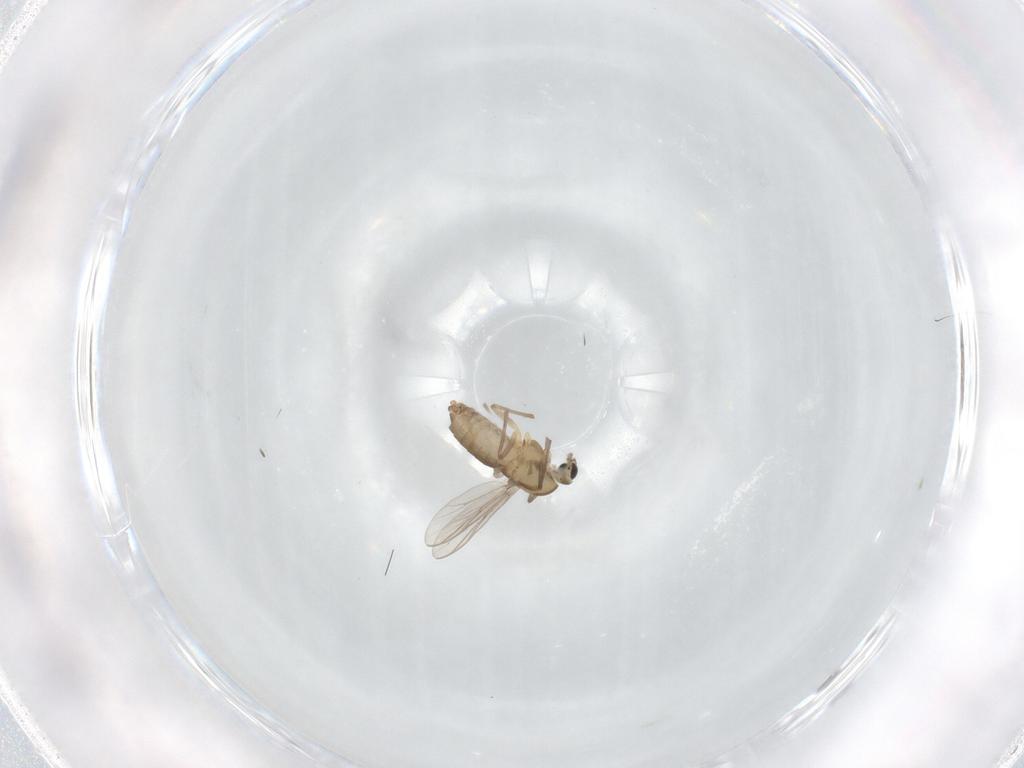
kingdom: Animalia
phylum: Arthropoda
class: Insecta
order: Diptera
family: Chironomidae
